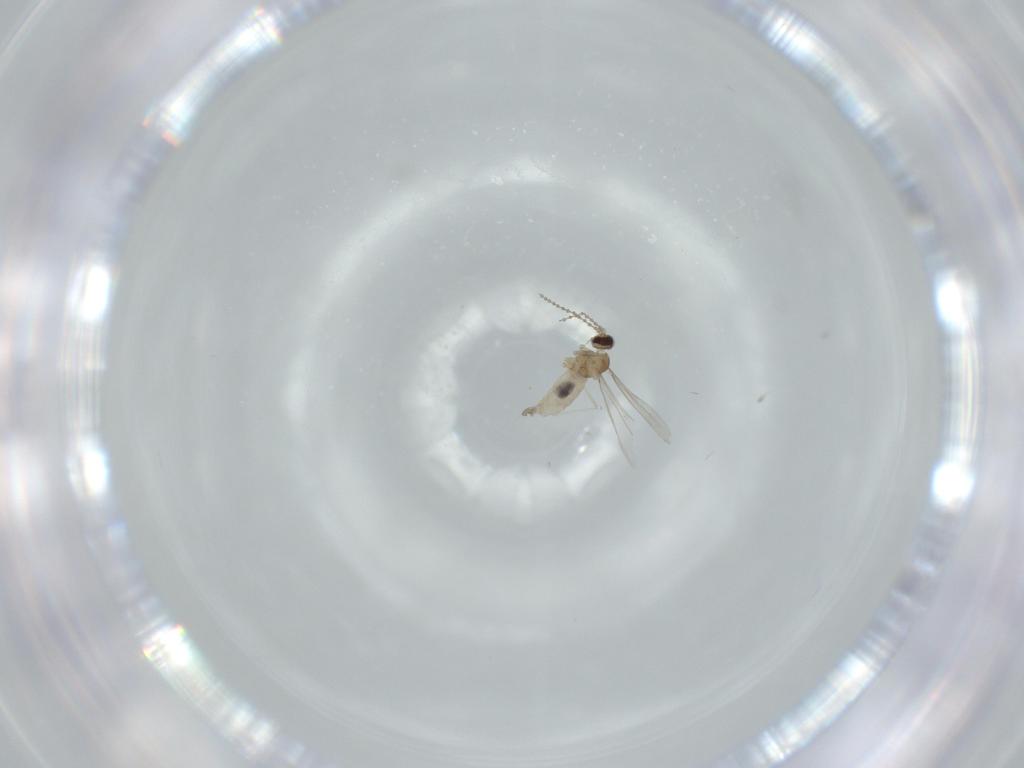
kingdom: Animalia
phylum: Arthropoda
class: Insecta
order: Diptera
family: Cecidomyiidae
